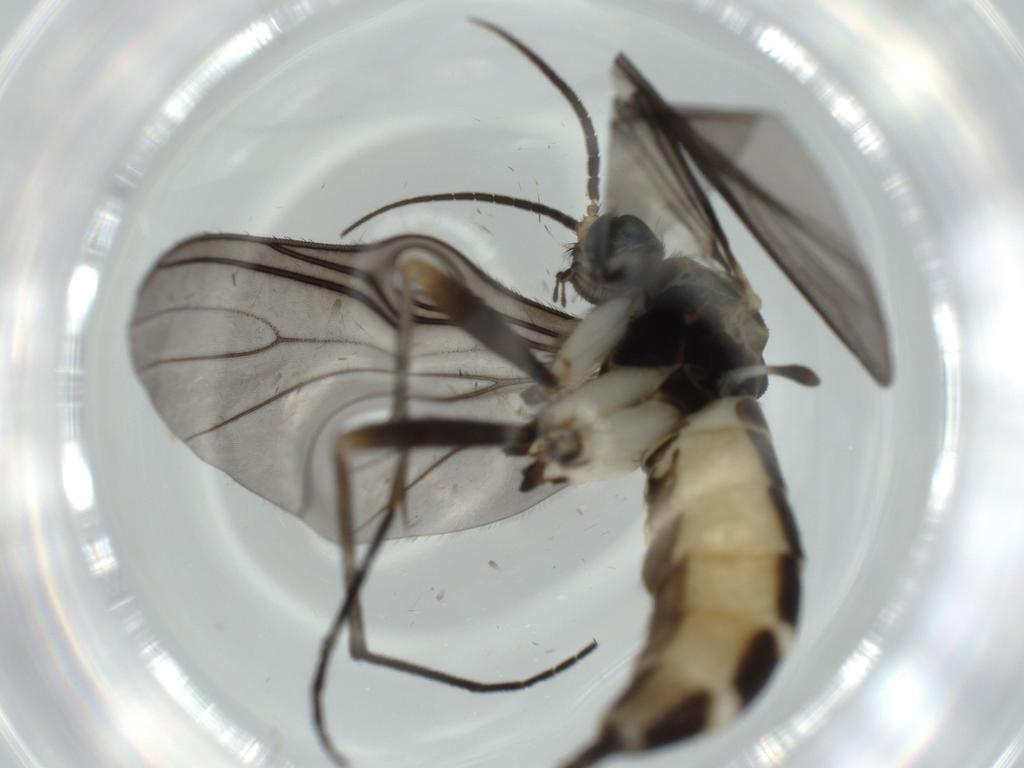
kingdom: Animalia
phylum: Arthropoda
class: Insecta
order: Diptera
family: Sciaridae
